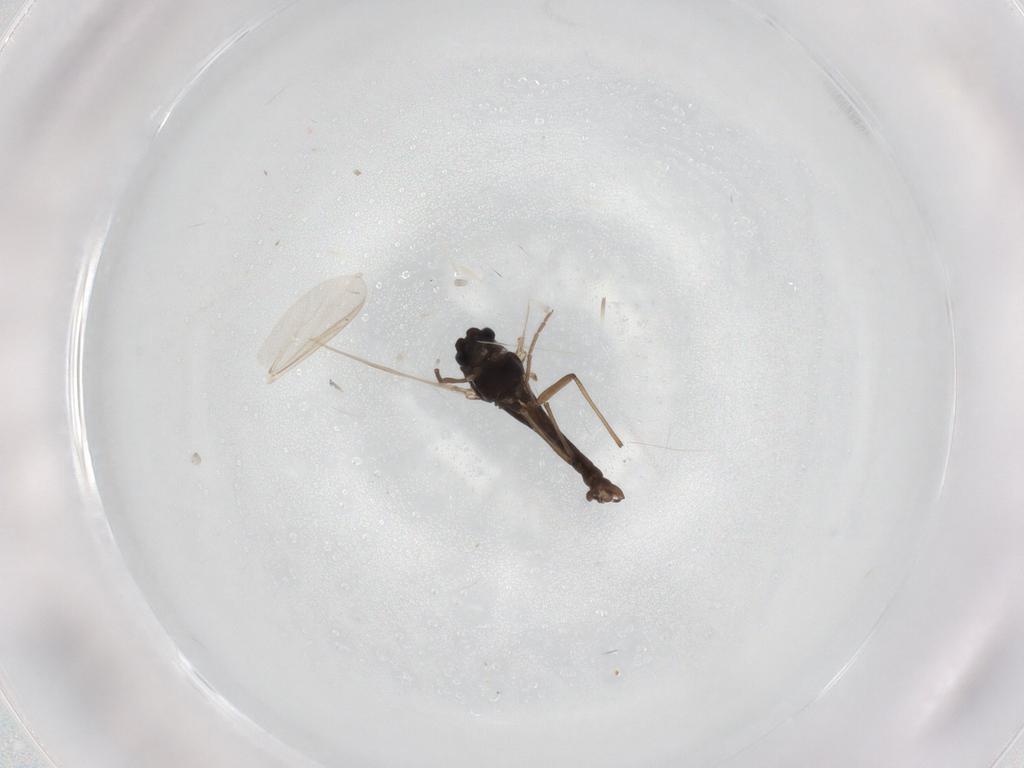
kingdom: Animalia
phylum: Arthropoda
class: Insecta
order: Diptera
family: Chironomidae
